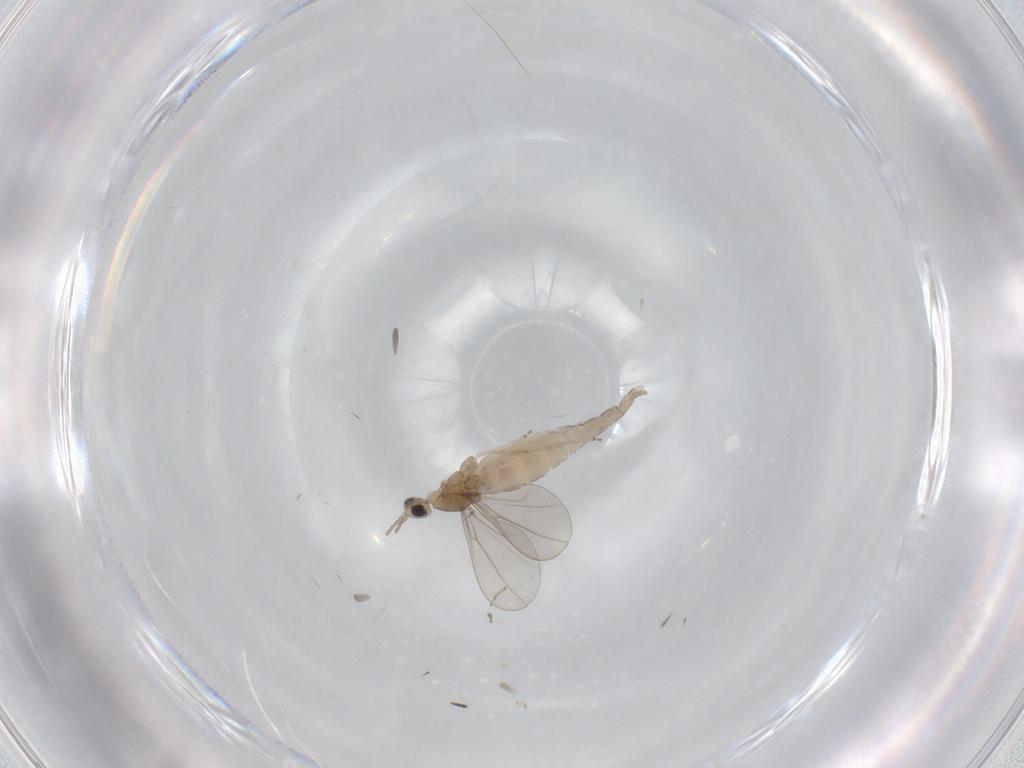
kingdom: Animalia
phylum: Arthropoda
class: Insecta
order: Diptera
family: Cecidomyiidae
